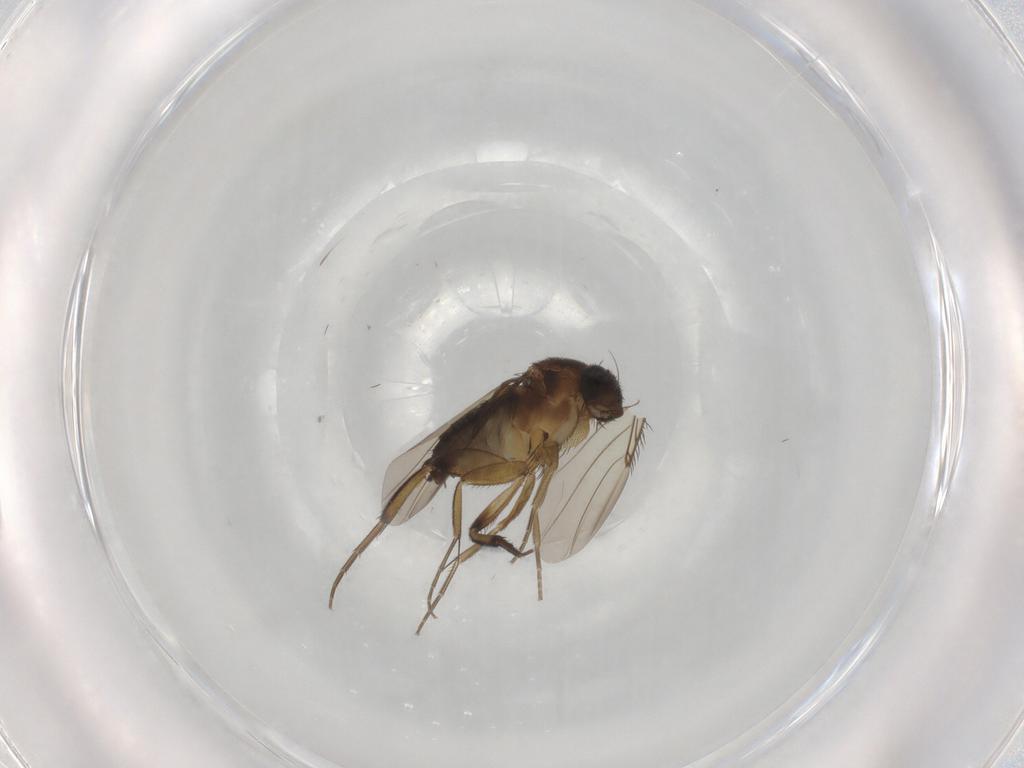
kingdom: Animalia
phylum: Arthropoda
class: Insecta
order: Diptera
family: Phoridae
